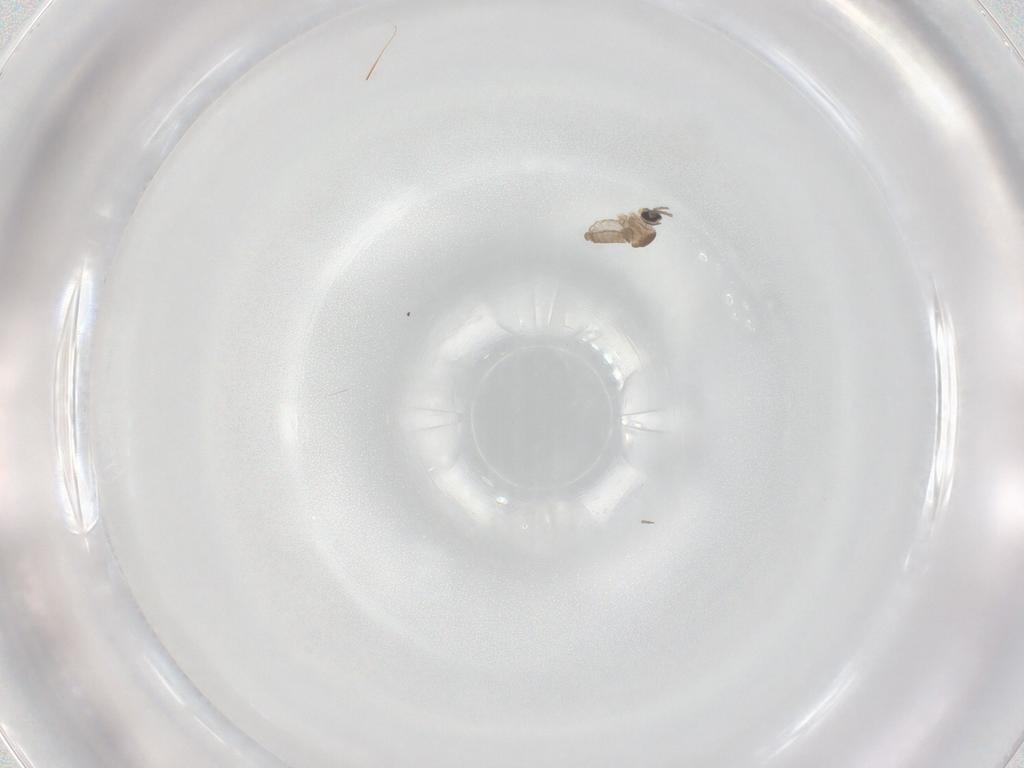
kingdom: Animalia
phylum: Arthropoda
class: Insecta
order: Diptera
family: Cecidomyiidae
